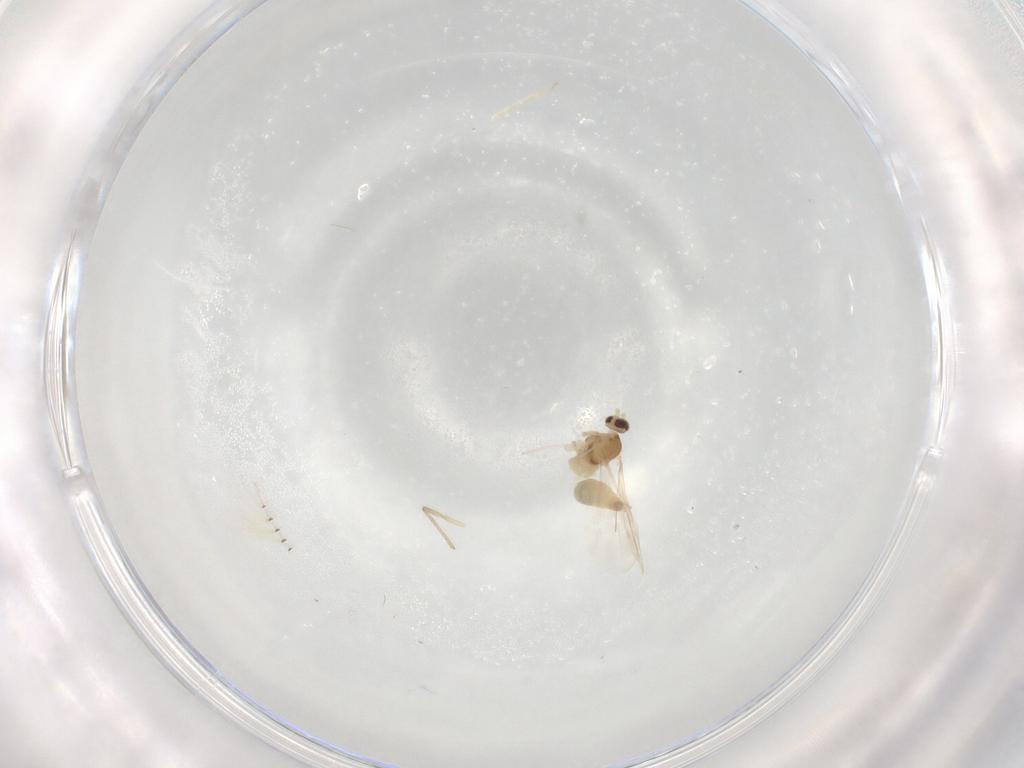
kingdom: Animalia
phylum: Arthropoda
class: Insecta
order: Diptera
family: Cecidomyiidae
